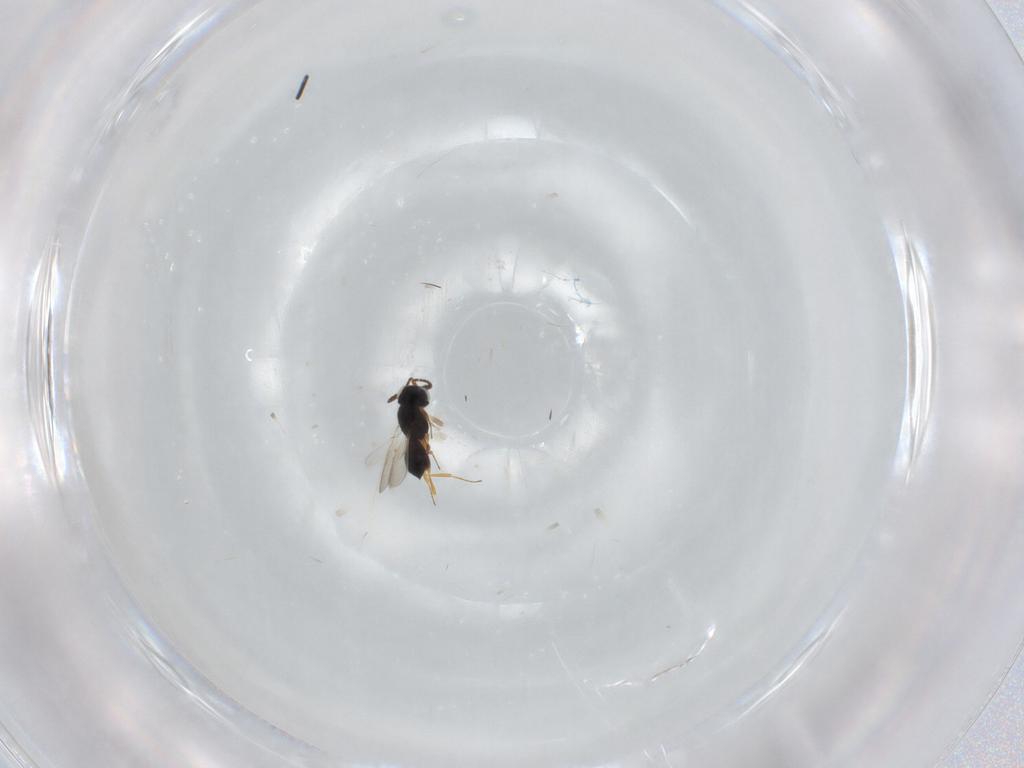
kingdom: Animalia
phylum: Arthropoda
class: Insecta
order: Hymenoptera
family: Scelionidae
